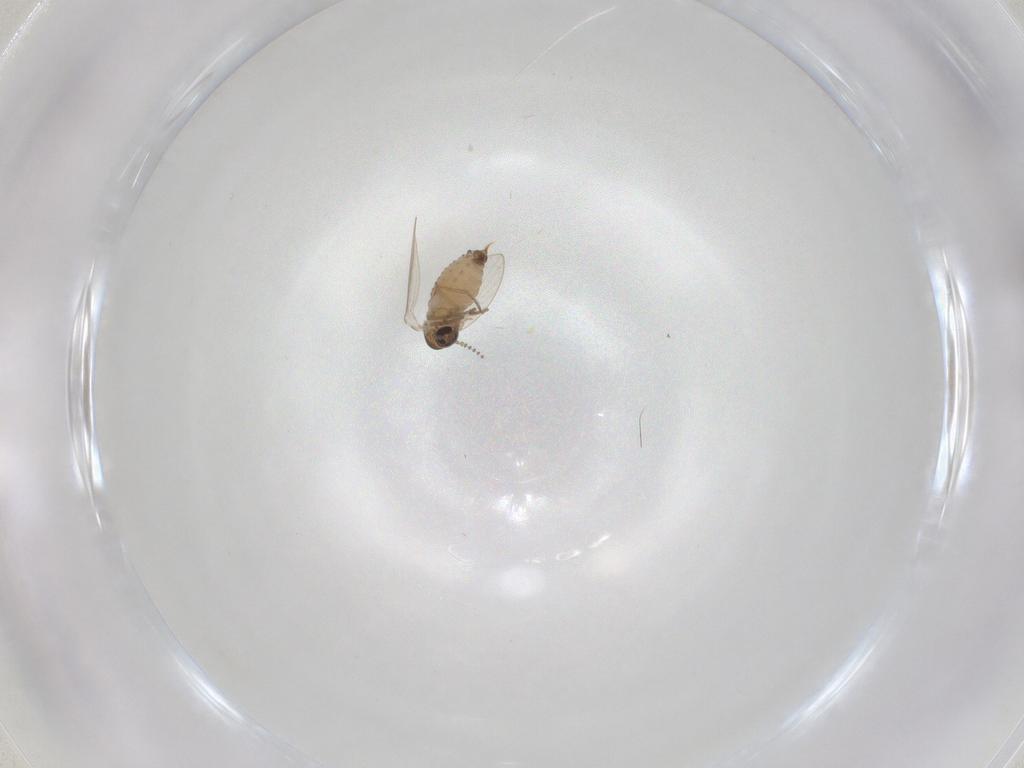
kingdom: Animalia
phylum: Arthropoda
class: Insecta
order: Diptera
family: Psychodidae
